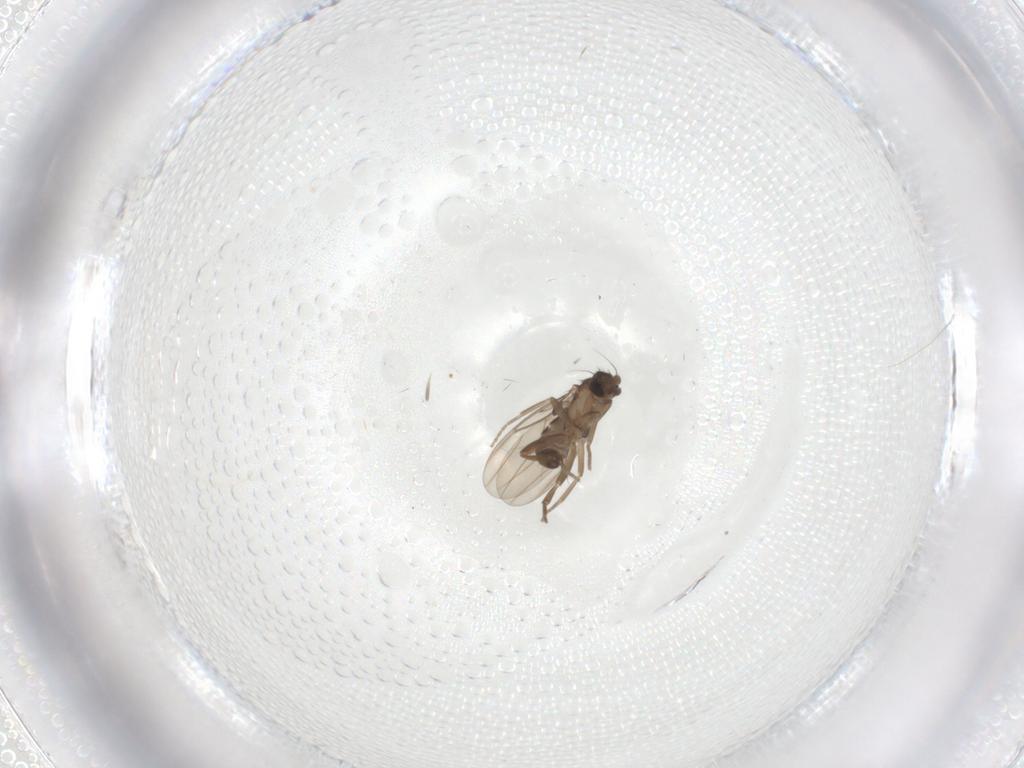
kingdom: Animalia
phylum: Arthropoda
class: Insecta
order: Diptera
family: Phoridae
